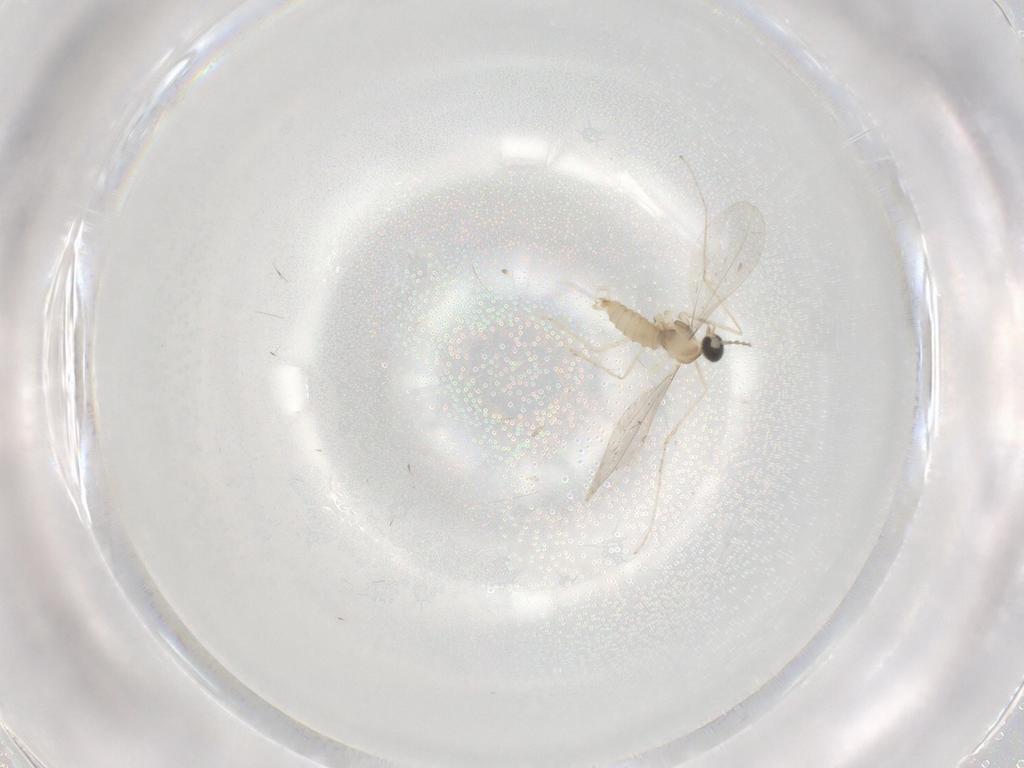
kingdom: Animalia
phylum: Arthropoda
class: Insecta
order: Diptera
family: Cecidomyiidae
